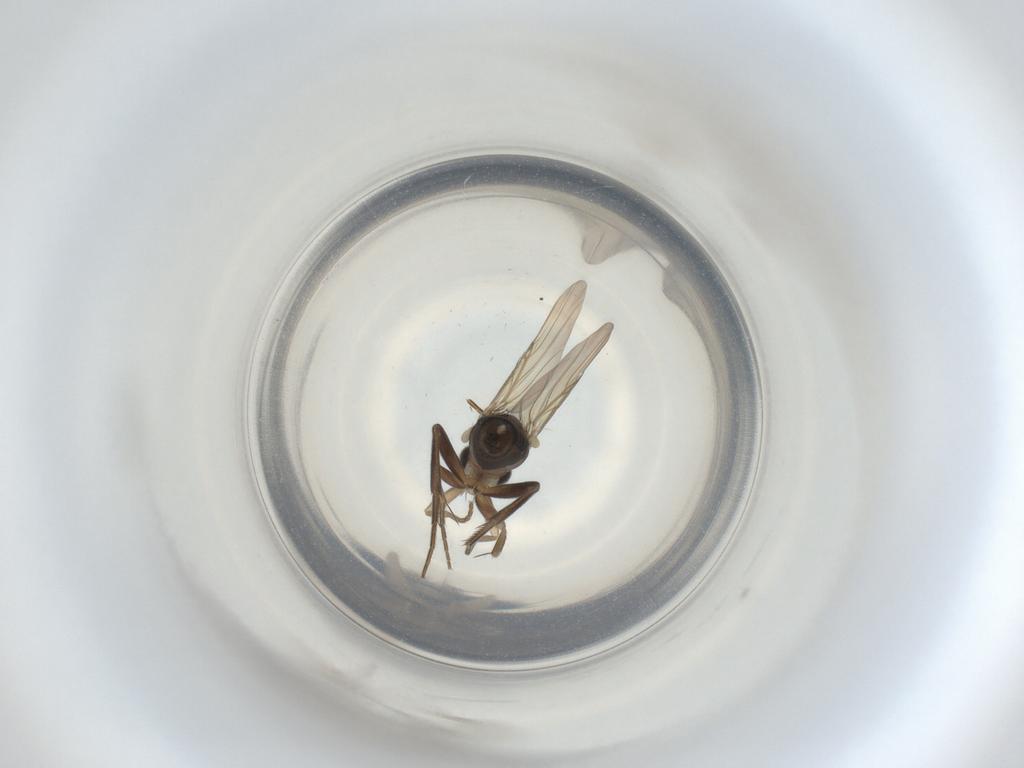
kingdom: Animalia
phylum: Arthropoda
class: Insecta
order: Diptera
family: Phoridae
